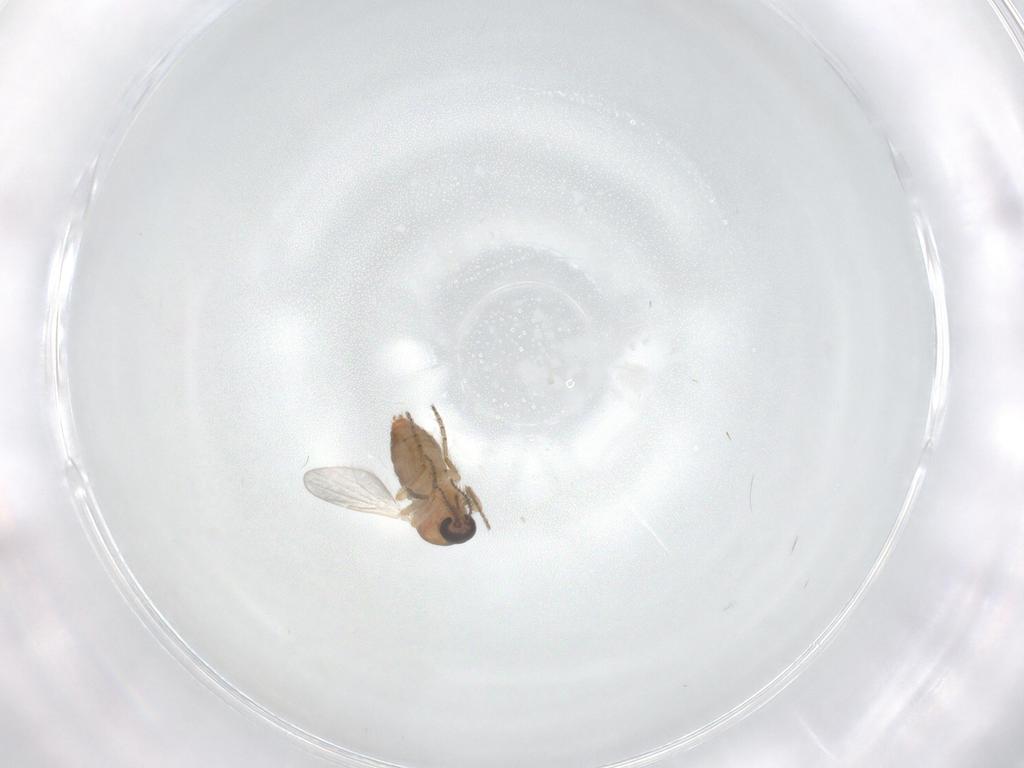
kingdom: Animalia
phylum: Arthropoda
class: Insecta
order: Diptera
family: Ceratopogonidae
